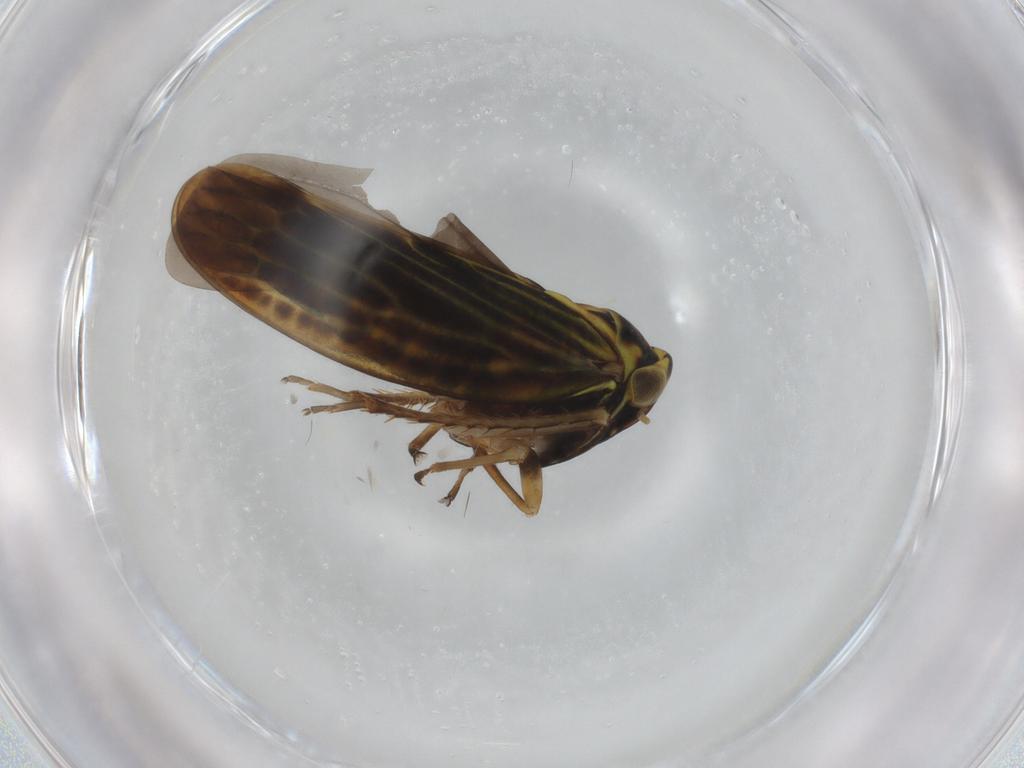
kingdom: Animalia
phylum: Arthropoda
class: Insecta
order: Hemiptera
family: Cicadellidae
